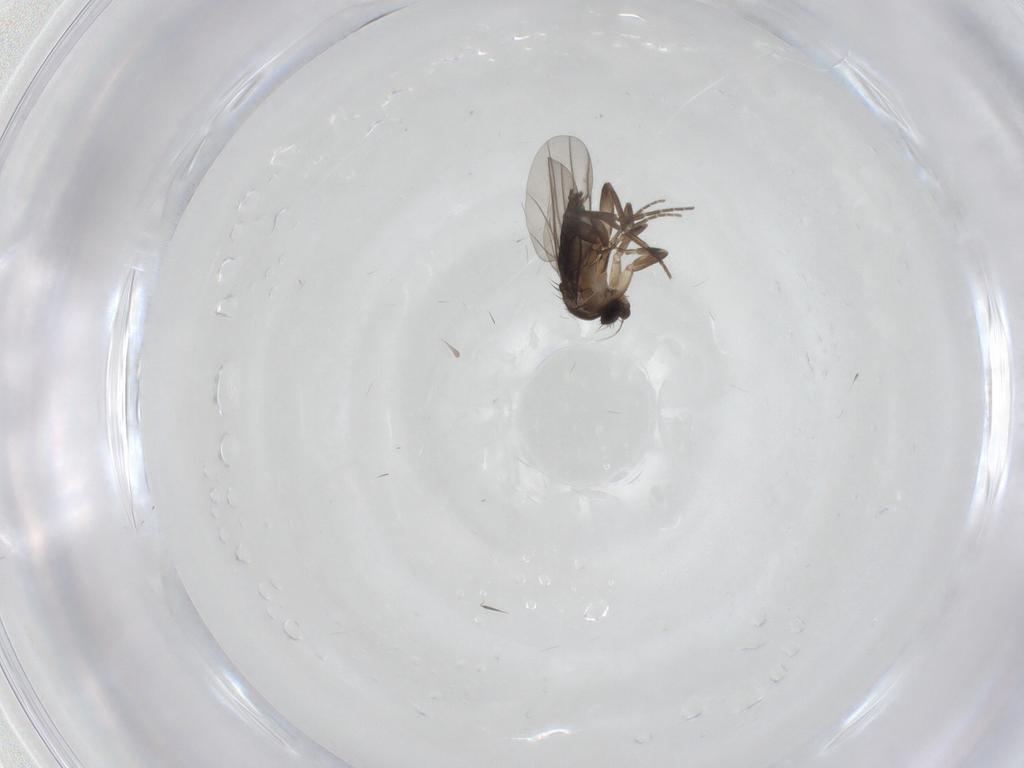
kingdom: Animalia
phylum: Arthropoda
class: Insecta
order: Diptera
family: Phoridae
